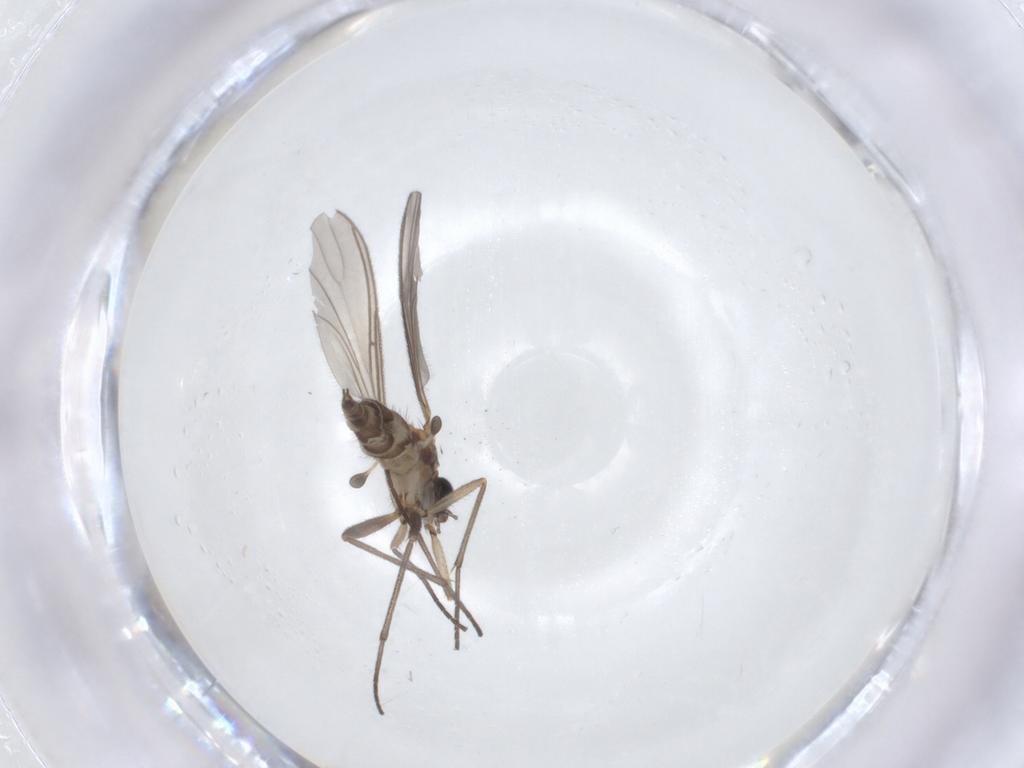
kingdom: Animalia
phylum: Arthropoda
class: Insecta
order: Diptera
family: Sciaridae
